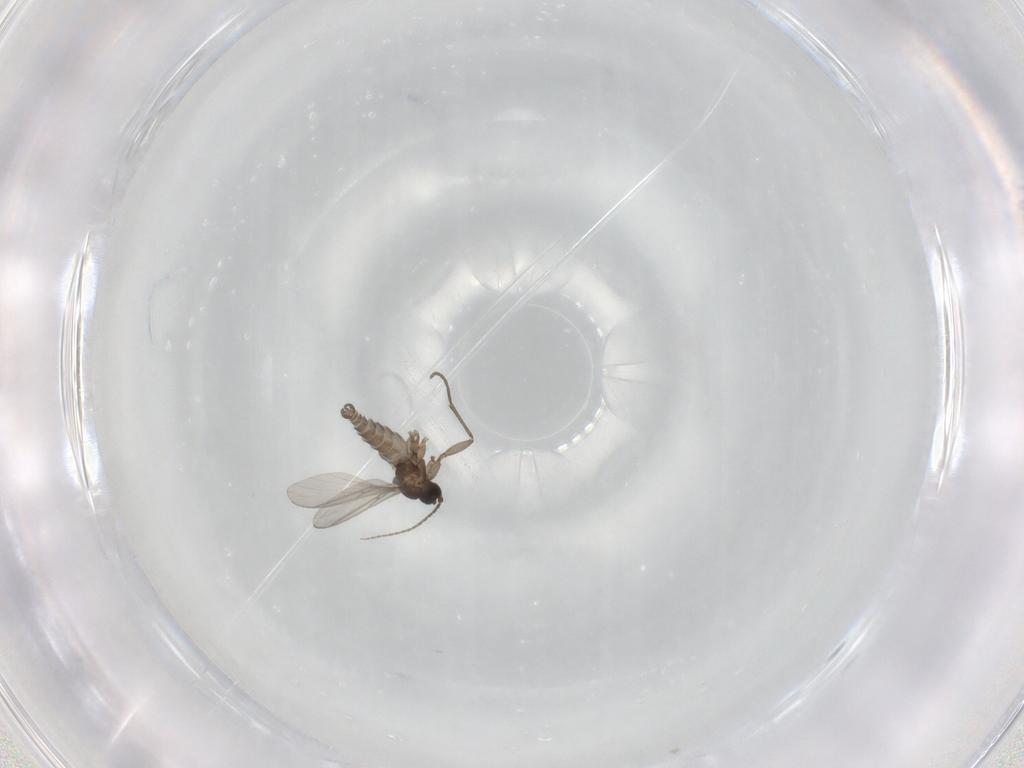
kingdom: Animalia
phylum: Arthropoda
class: Insecta
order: Diptera
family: Sciaridae
